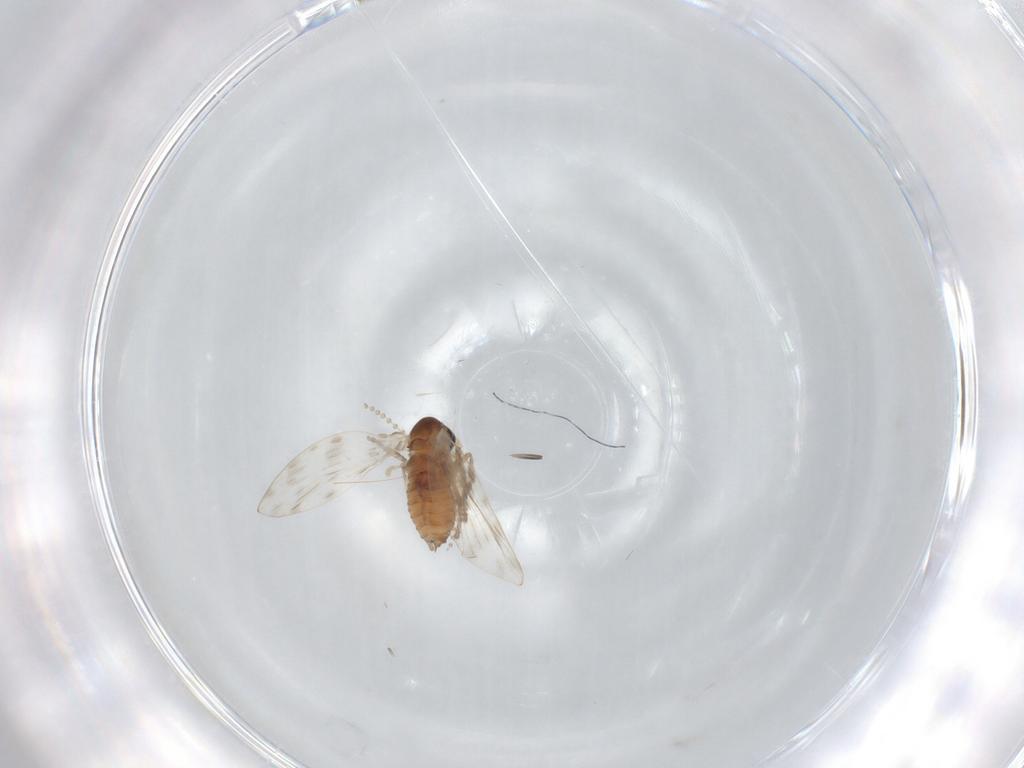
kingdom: Animalia
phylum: Arthropoda
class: Insecta
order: Diptera
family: Psychodidae
